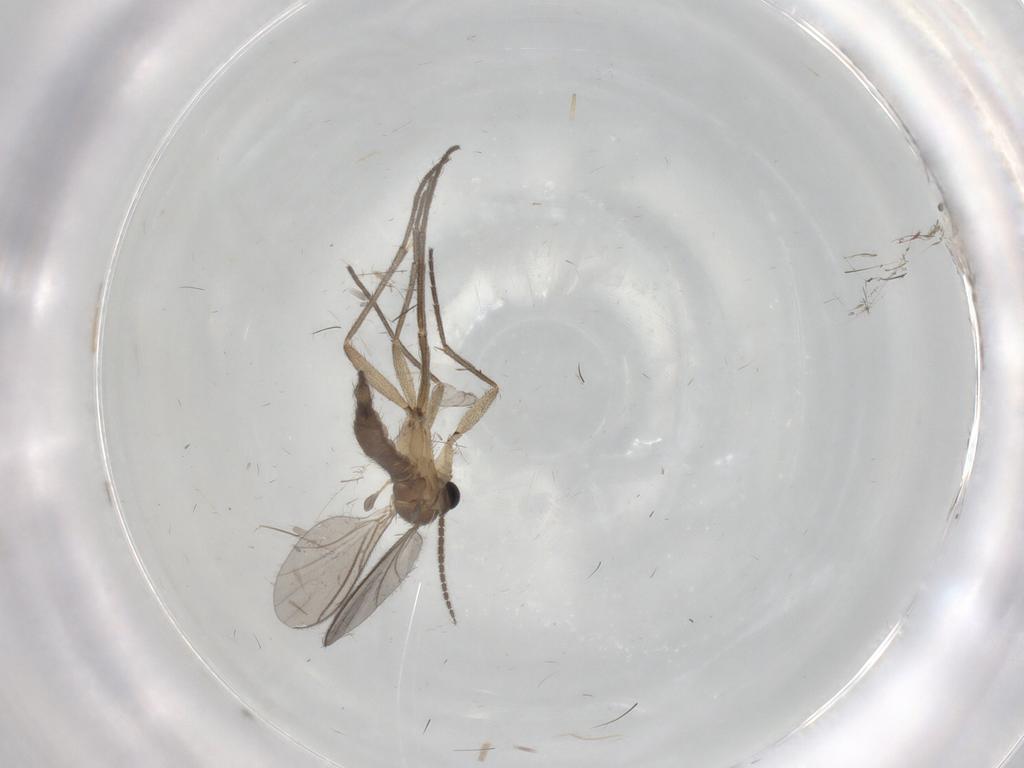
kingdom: Animalia
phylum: Arthropoda
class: Insecta
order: Diptera
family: Sciaridae
